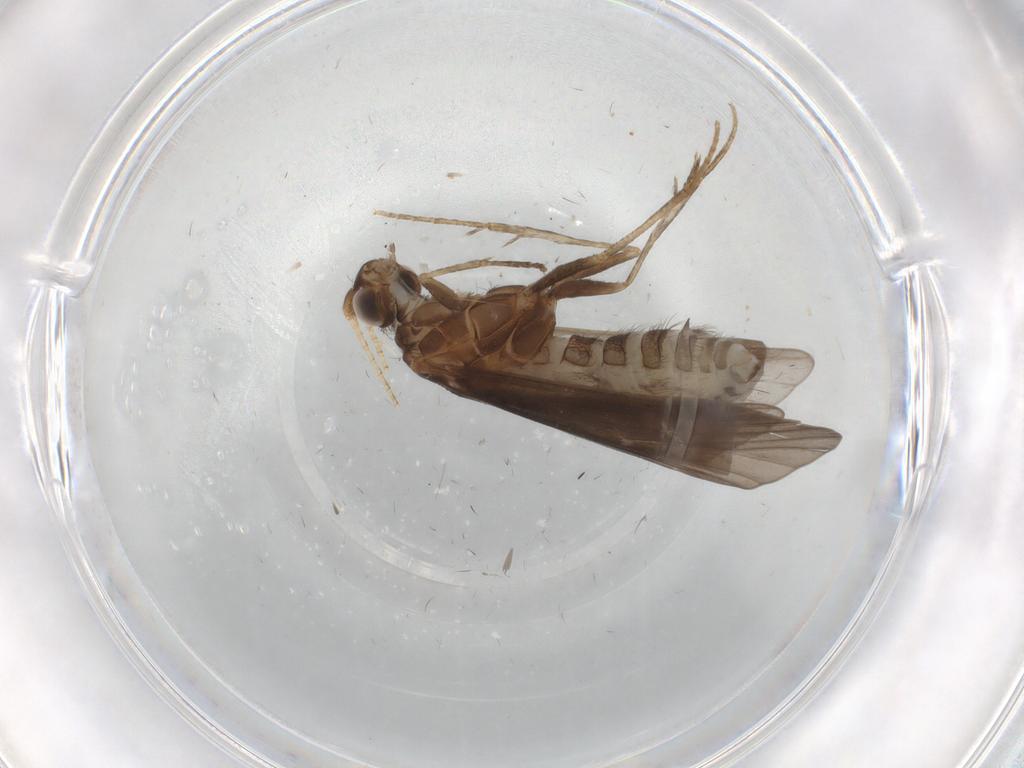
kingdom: Animalia
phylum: Arthropoda
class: Insecta
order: Trichoptera
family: Helicopsychidae
